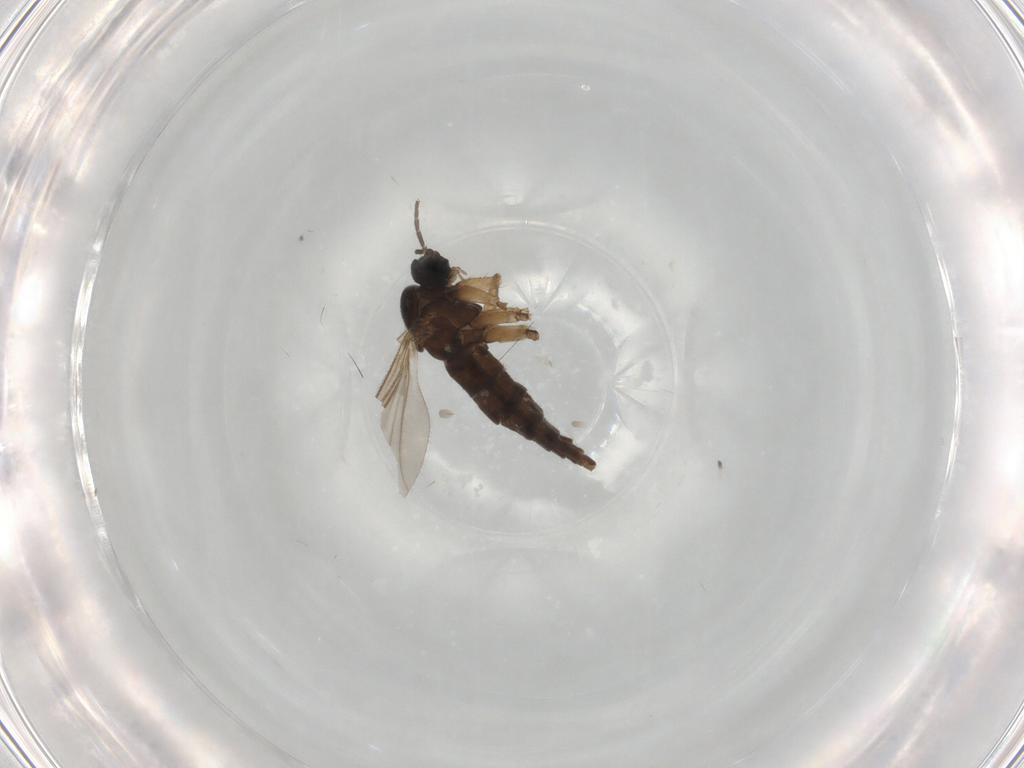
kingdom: Animalia
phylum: Arthropoda
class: Insecta
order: Diptera
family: Sciaridae
